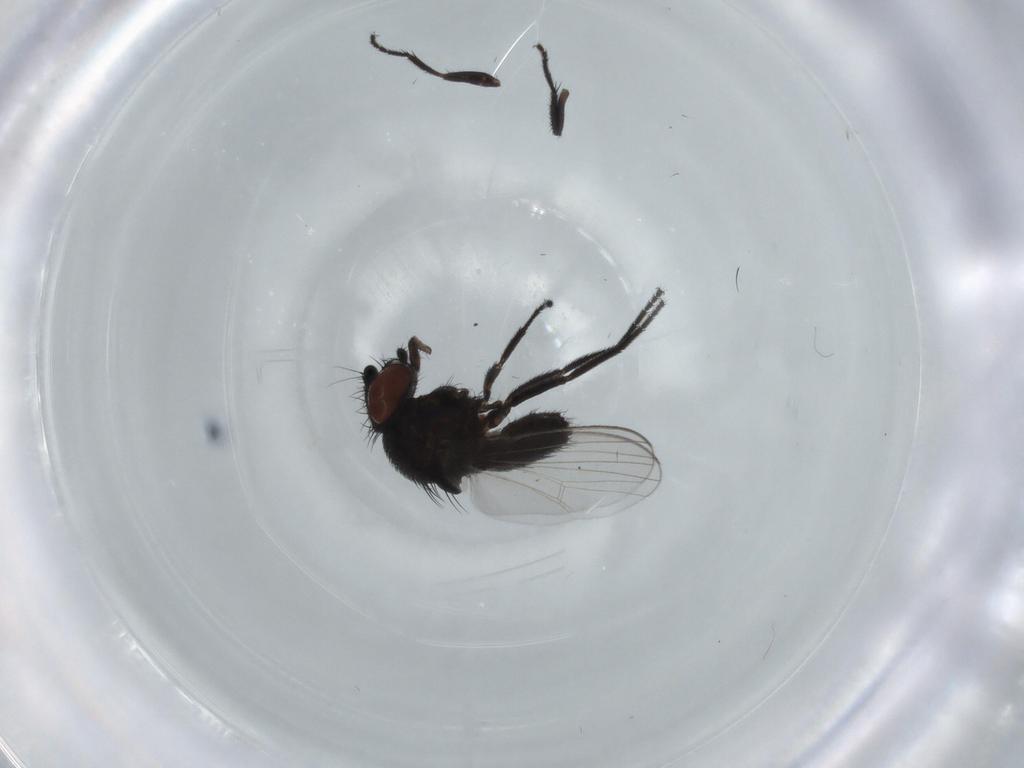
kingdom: Animalia
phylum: Arthropoda
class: Insecta
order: Diptera
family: Milichiidae
